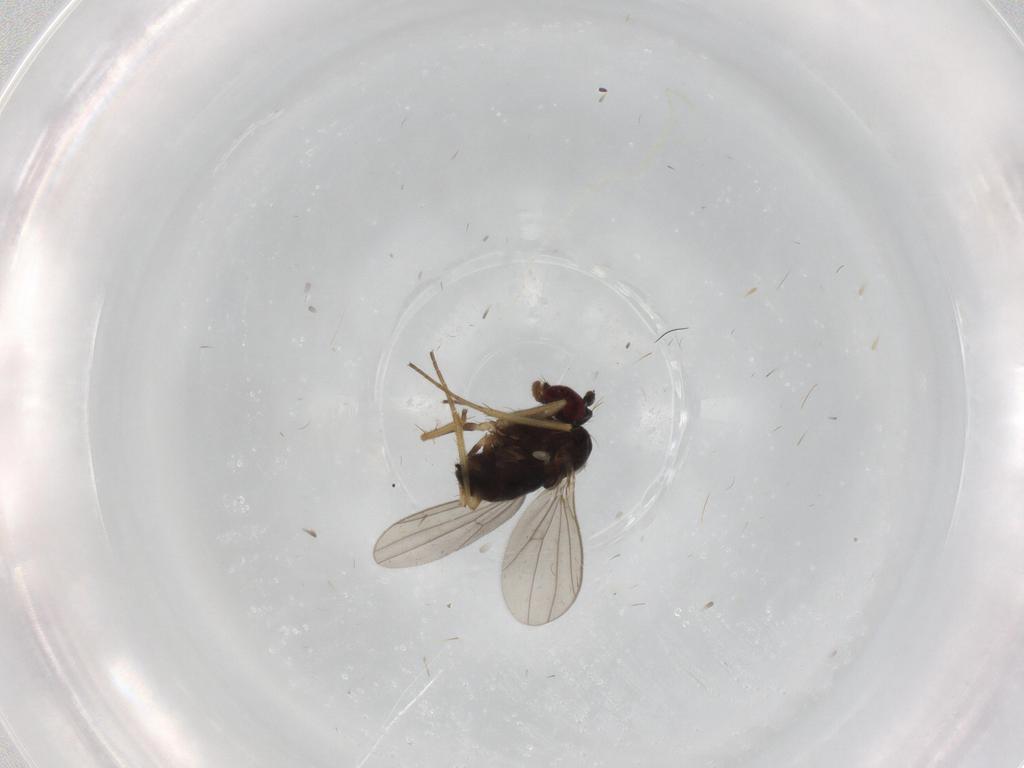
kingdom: Animalia
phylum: Arthropoda
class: Insecta
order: Diptera
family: Dolichopodidae
